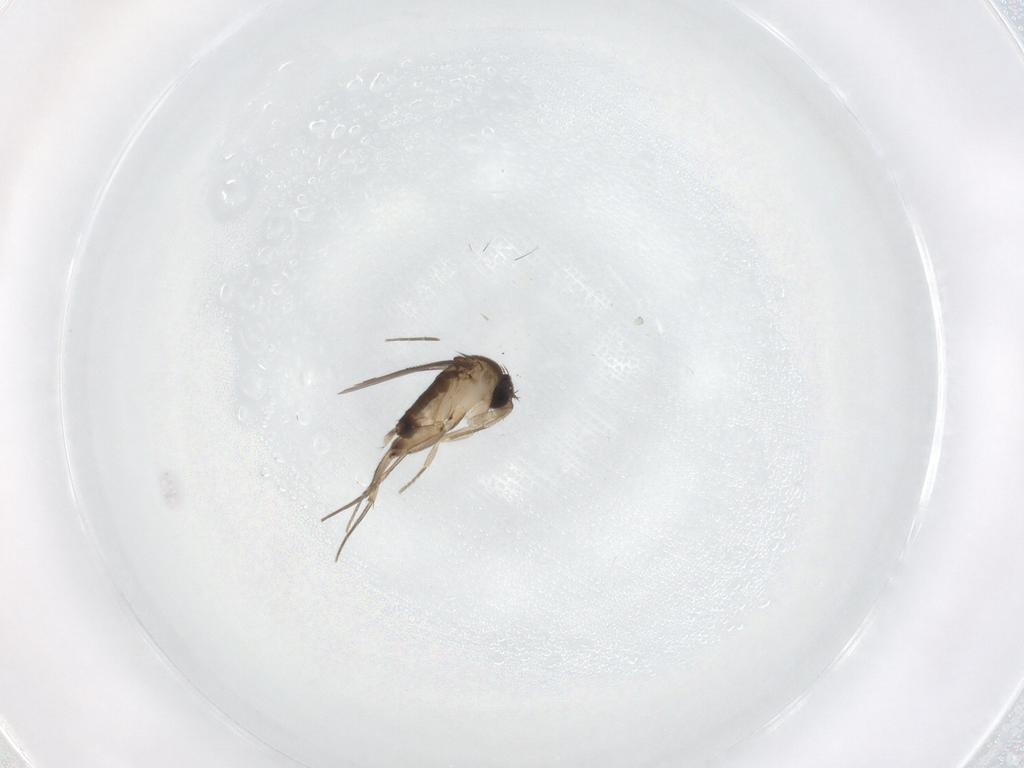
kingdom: Animalia
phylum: Arthropoda
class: Insecta
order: Diptera
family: Phoridae
